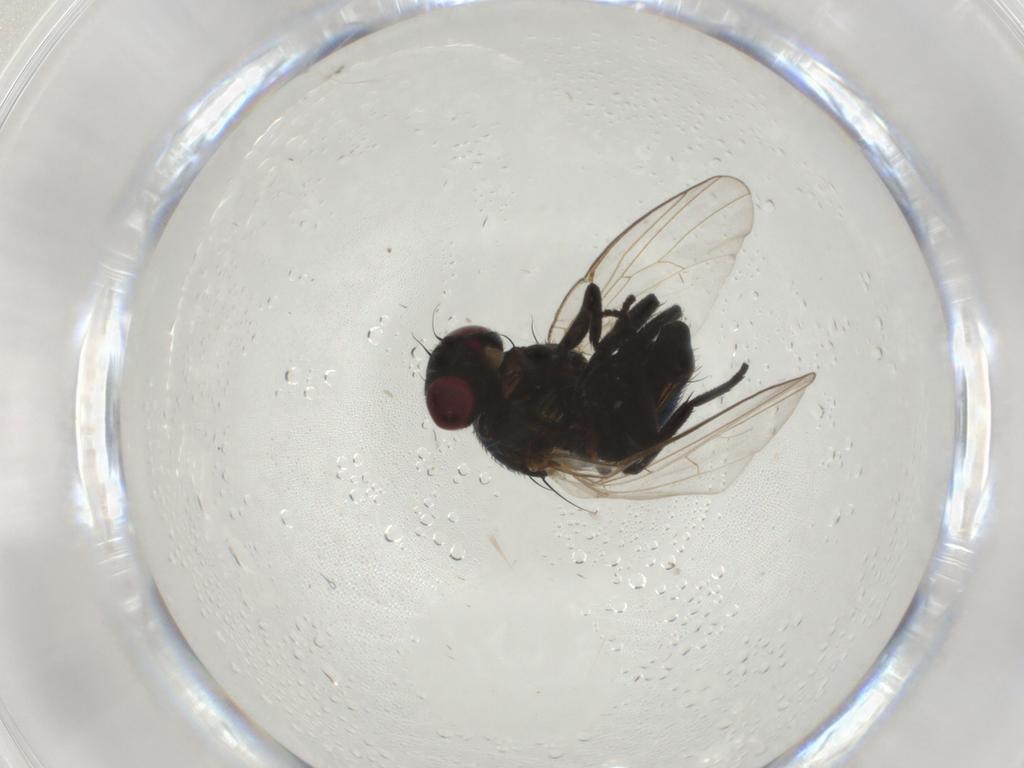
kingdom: Animalia
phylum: Arthropoda
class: Insecta
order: Diptera
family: Agromyzidae
